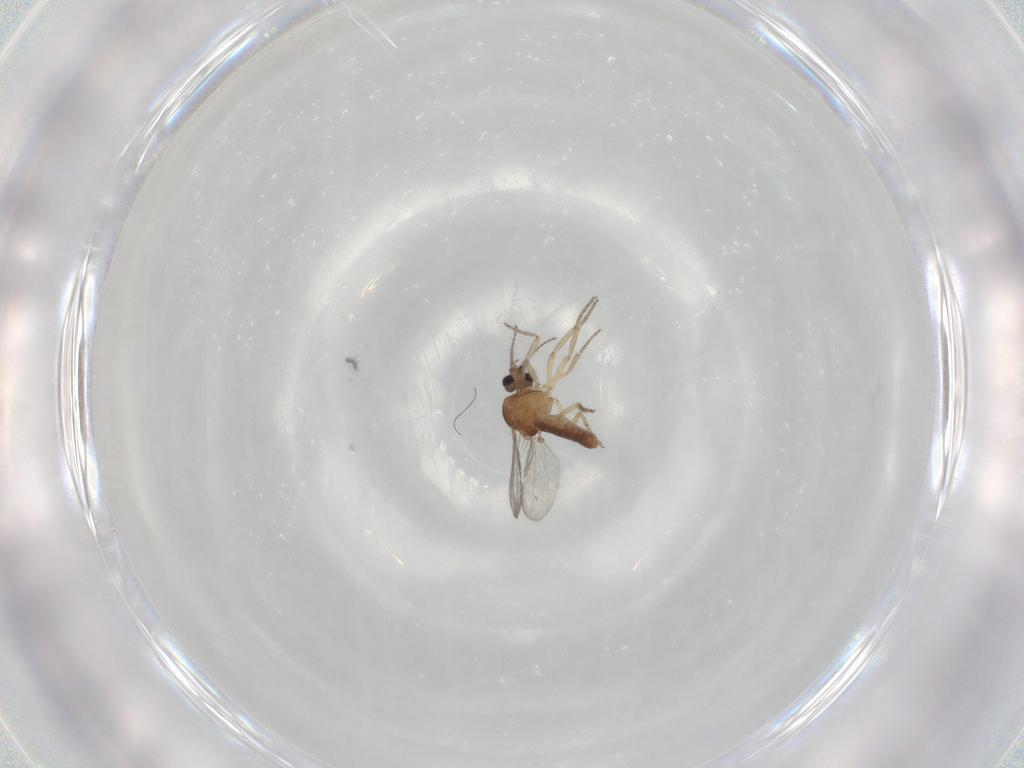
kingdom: Animalia
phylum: Arthropoda
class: Insecta
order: Diptera
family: Ceratopogonidae
